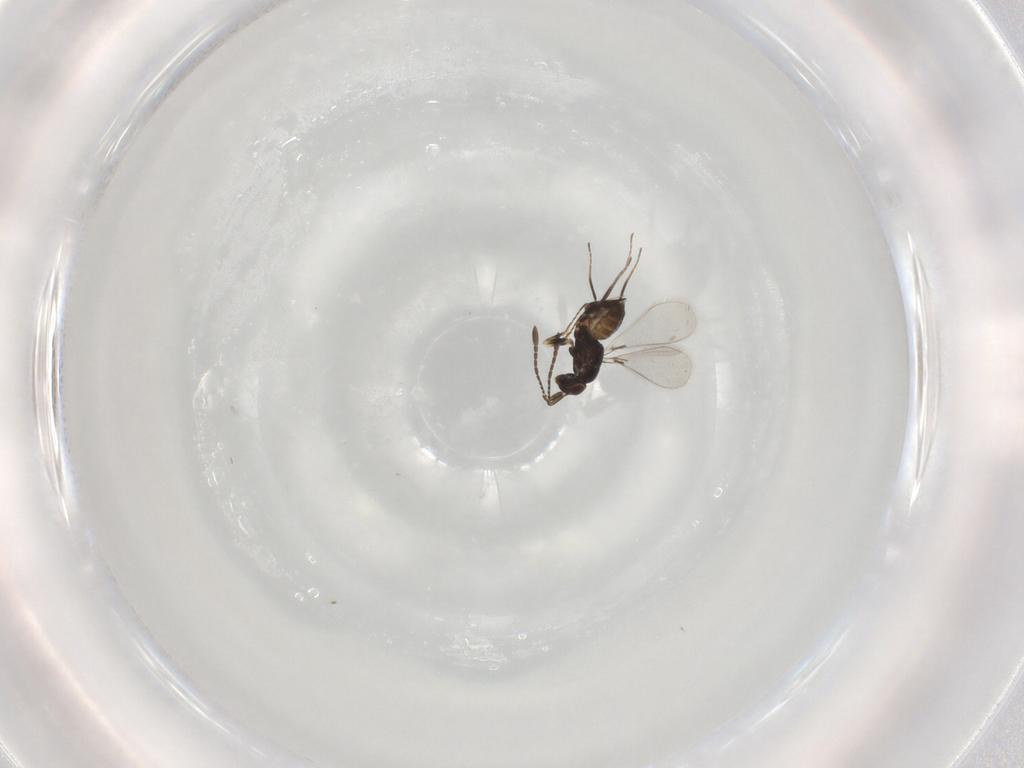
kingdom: Animalia
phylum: Arthropoda
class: Insecta
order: Hymenoptera
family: Mymaridae
